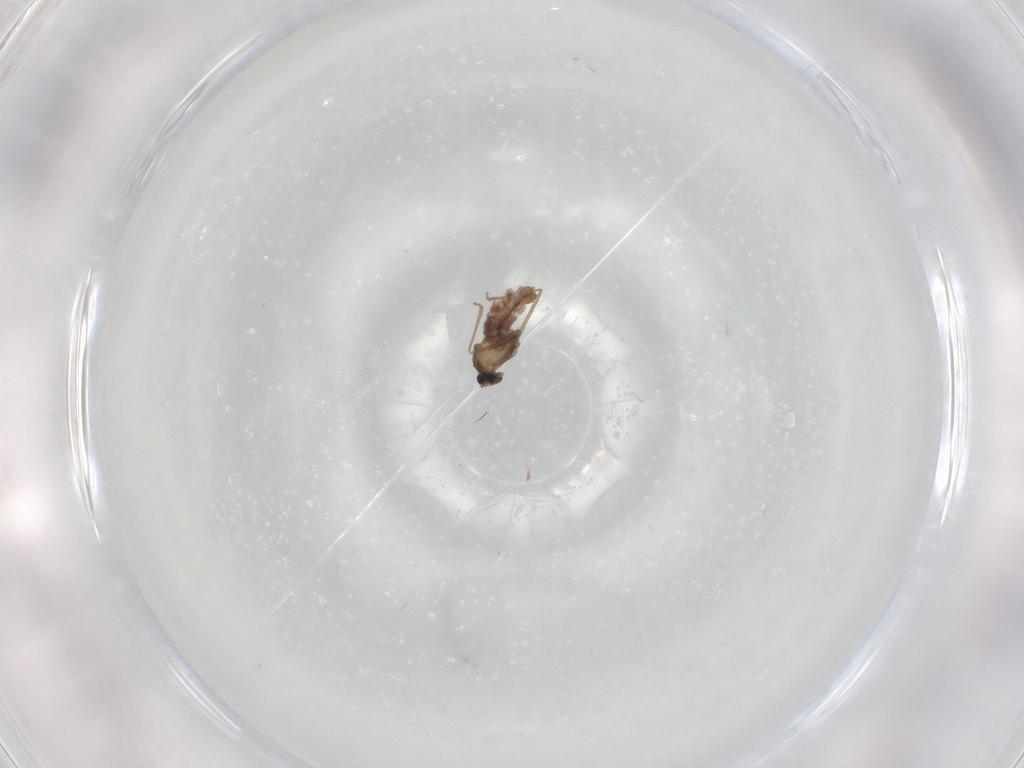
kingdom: Animalia
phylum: Arthropoda
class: Insecta
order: Diptera
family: Cecidomyiidae
